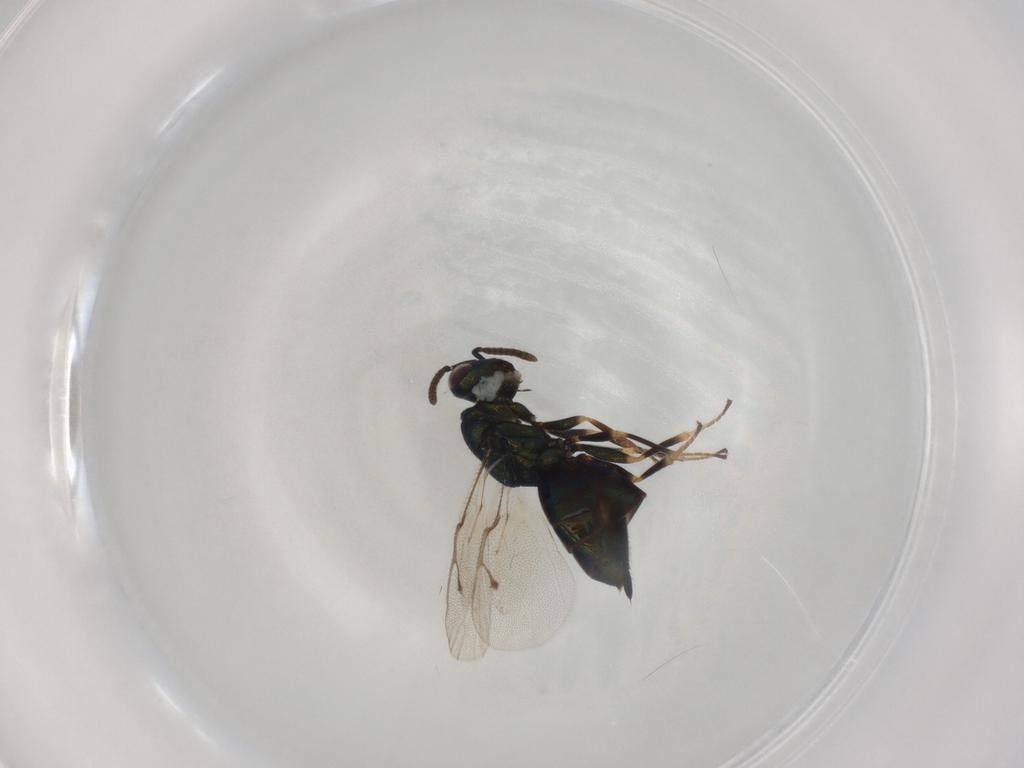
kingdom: Animalia
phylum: Arthropoda
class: Insecta
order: Hymenoptera
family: Pteromalidae
